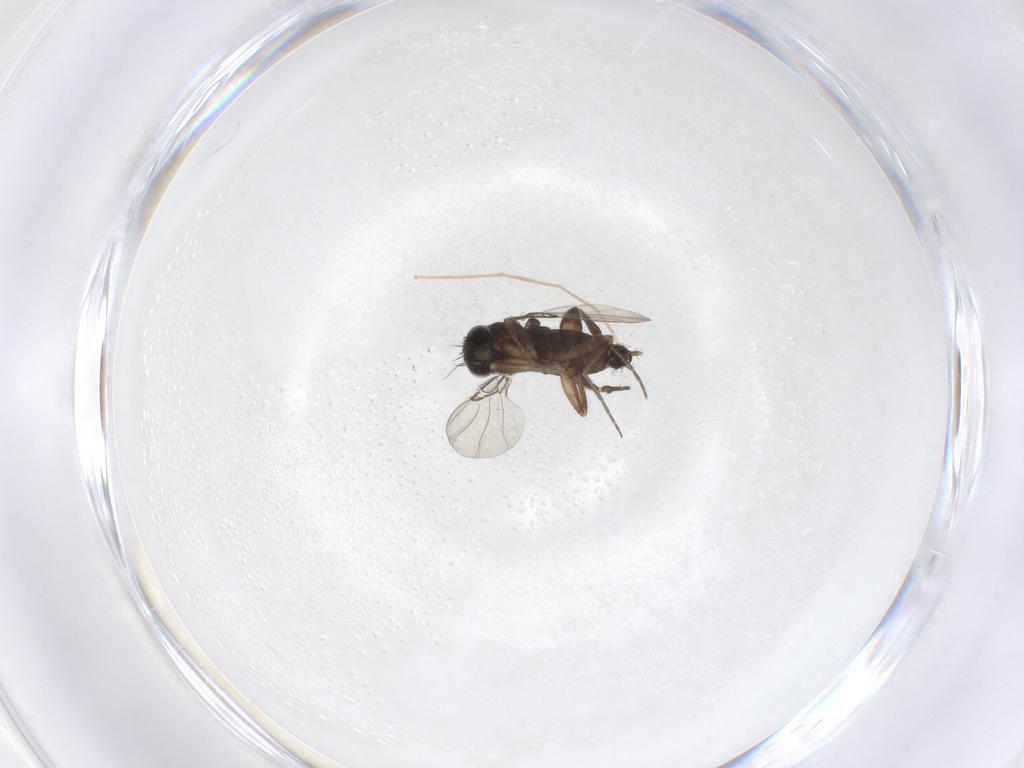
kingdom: Animalia
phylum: Arthropoda
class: Insecta
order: Diptera
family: Phoridae
